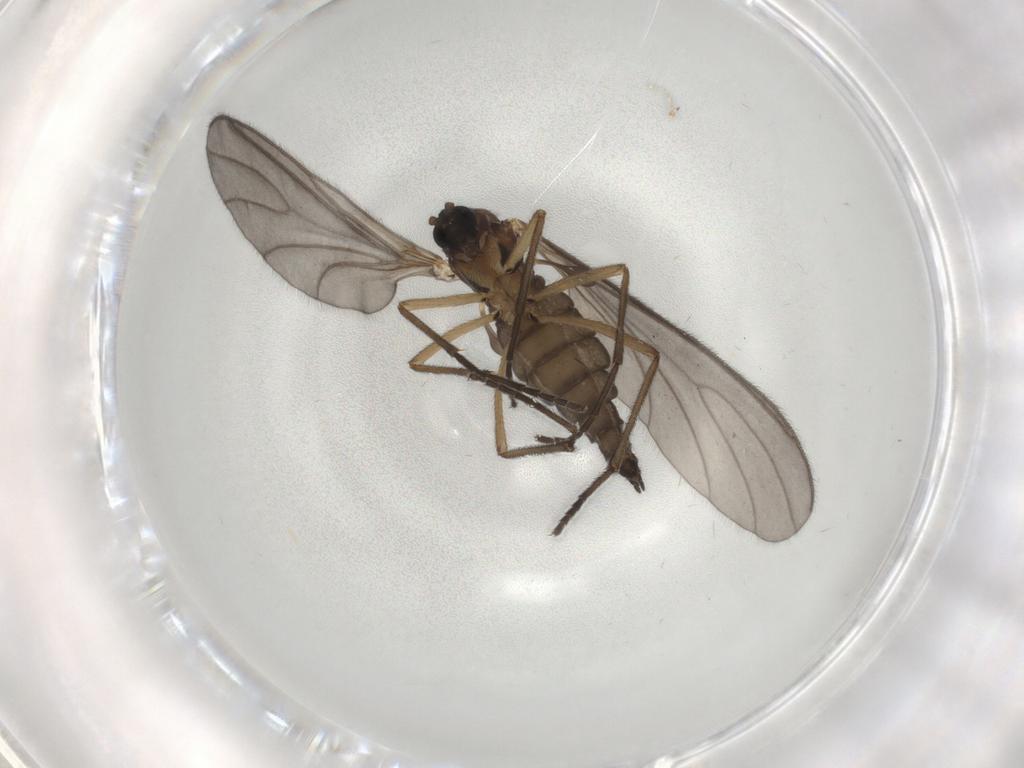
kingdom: Animalia
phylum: Arthropoda
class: Insecta
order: Diptera
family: Sciaridae
